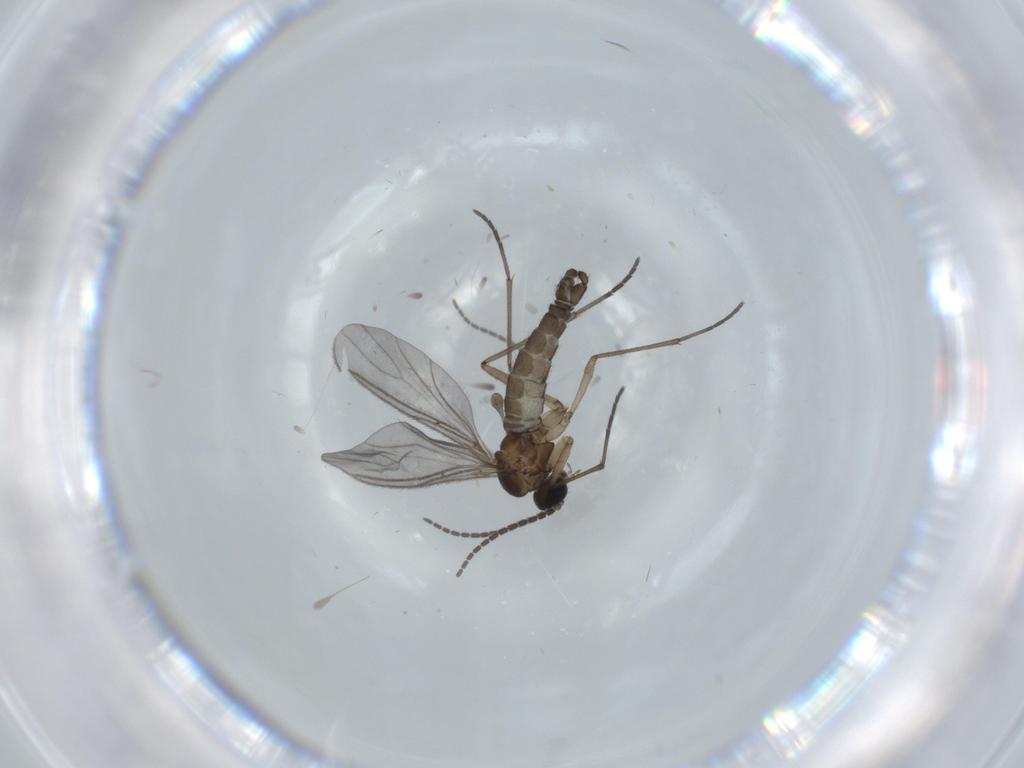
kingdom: Animalia
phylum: Arthropoda
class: Insecta
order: Diptera
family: Sciaridae
